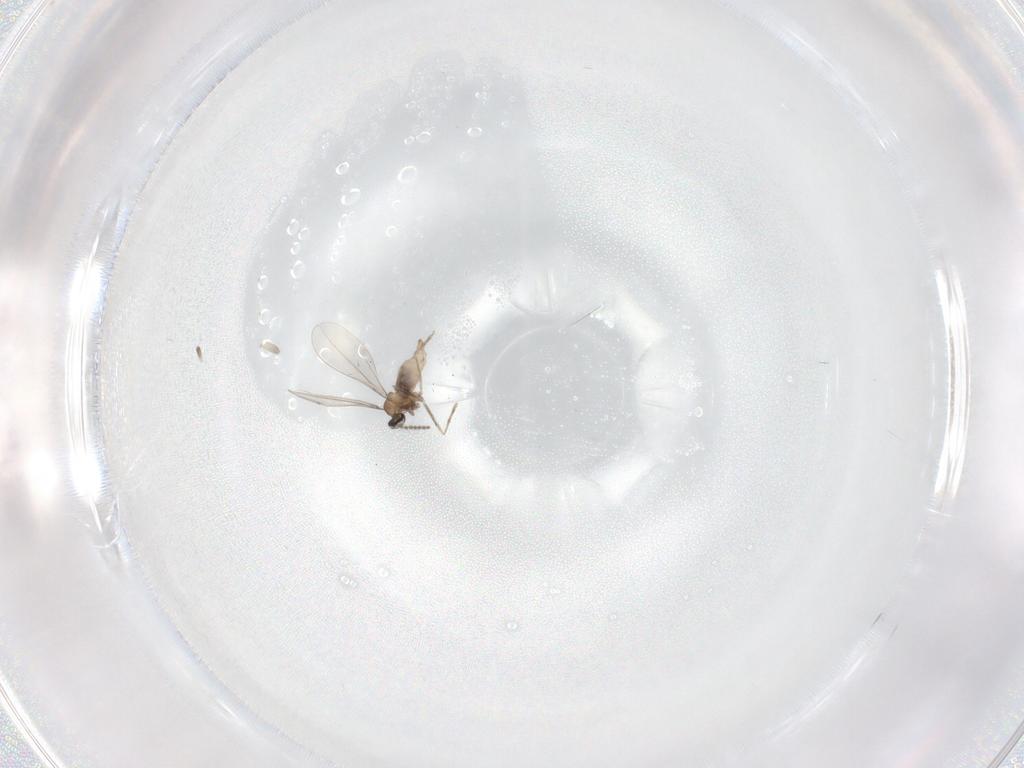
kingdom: Animalia
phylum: Arthropoda
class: Insecta
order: Diptera
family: Cecidomyiidae
